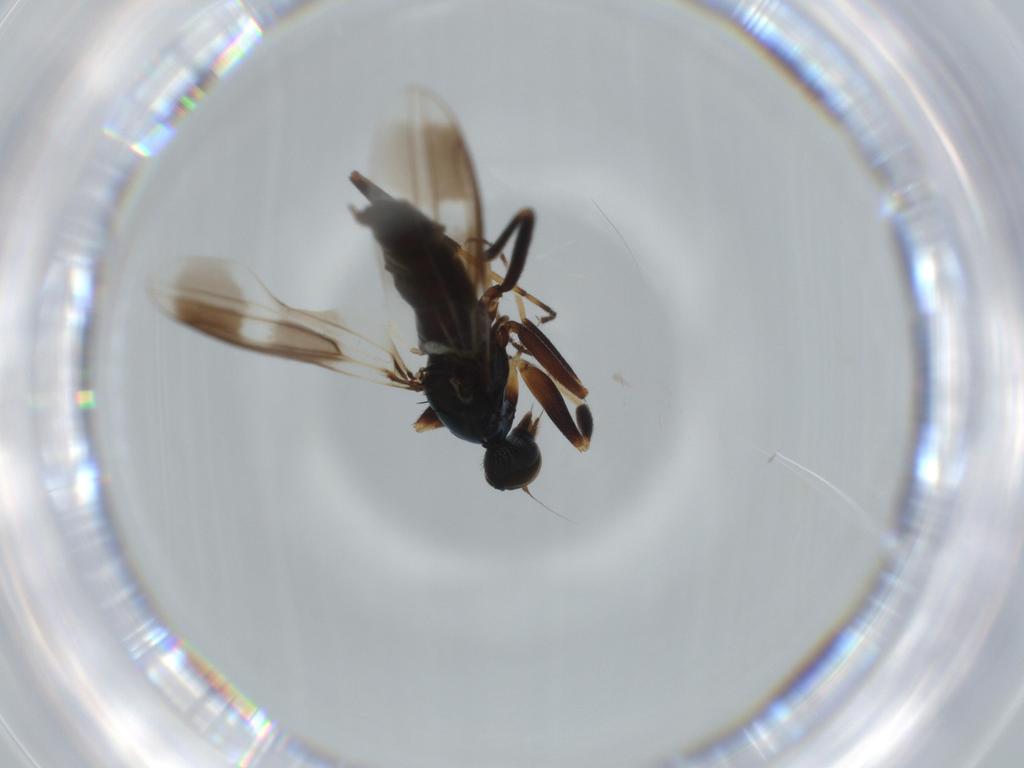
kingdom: Animalia
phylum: Arthropoda
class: Insecta
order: Diptera
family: Hybotidae
